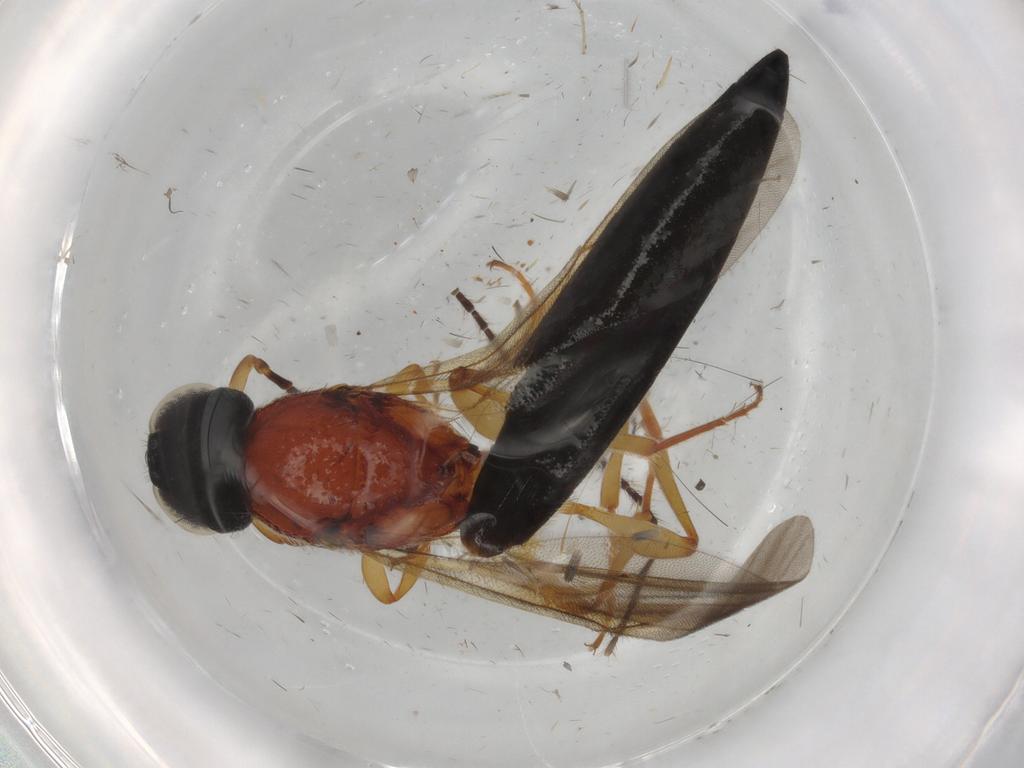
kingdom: Animalia
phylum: Arthropoda
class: Insecta
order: Hymenoptera
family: Scelionidae
